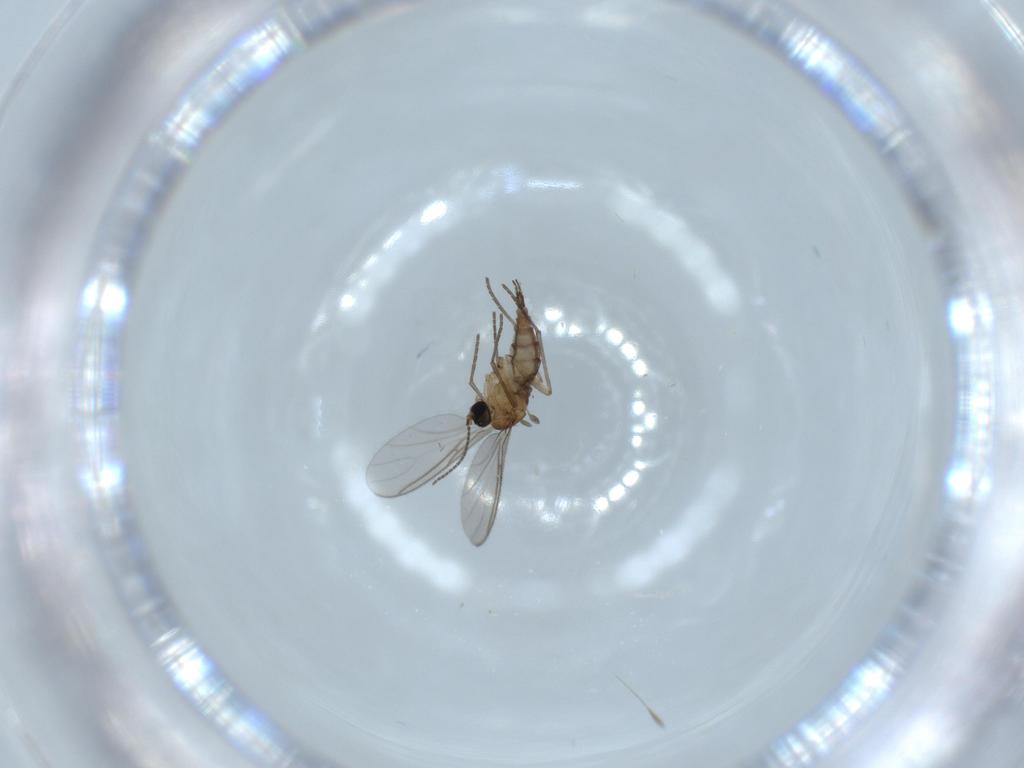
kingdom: Animalia
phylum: Arthropoda
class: Insecta
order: Diptera
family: Sciaridae
